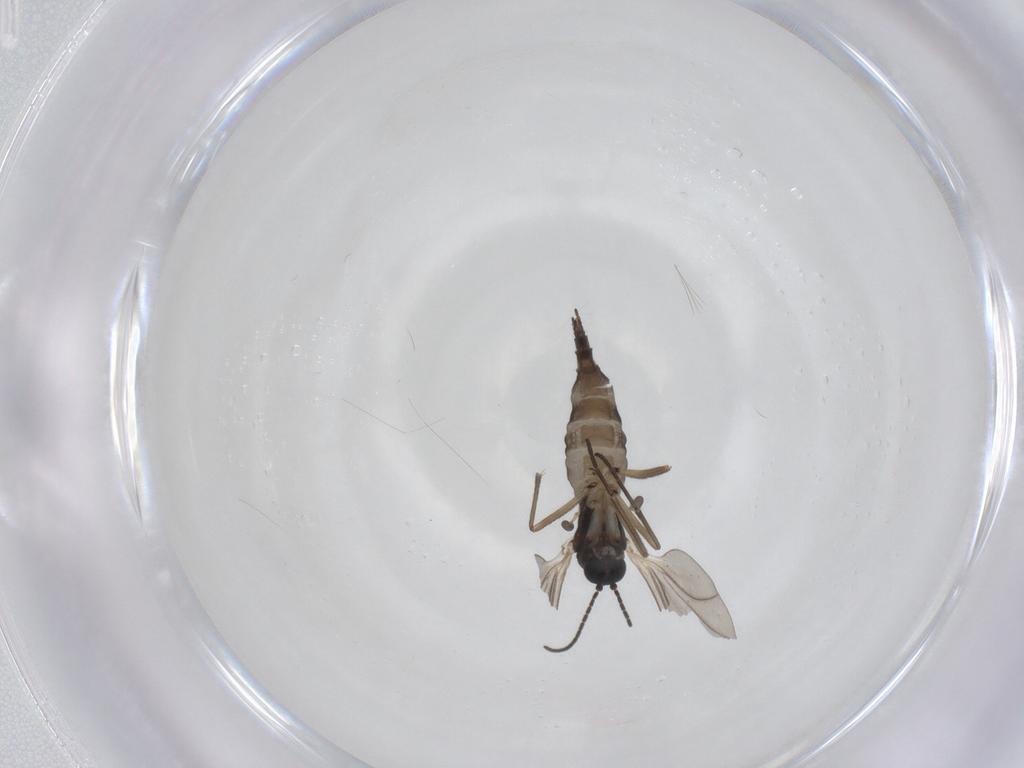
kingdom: Animalia
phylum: Arthropoda
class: Insecta
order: Diptera
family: Sciaridae
